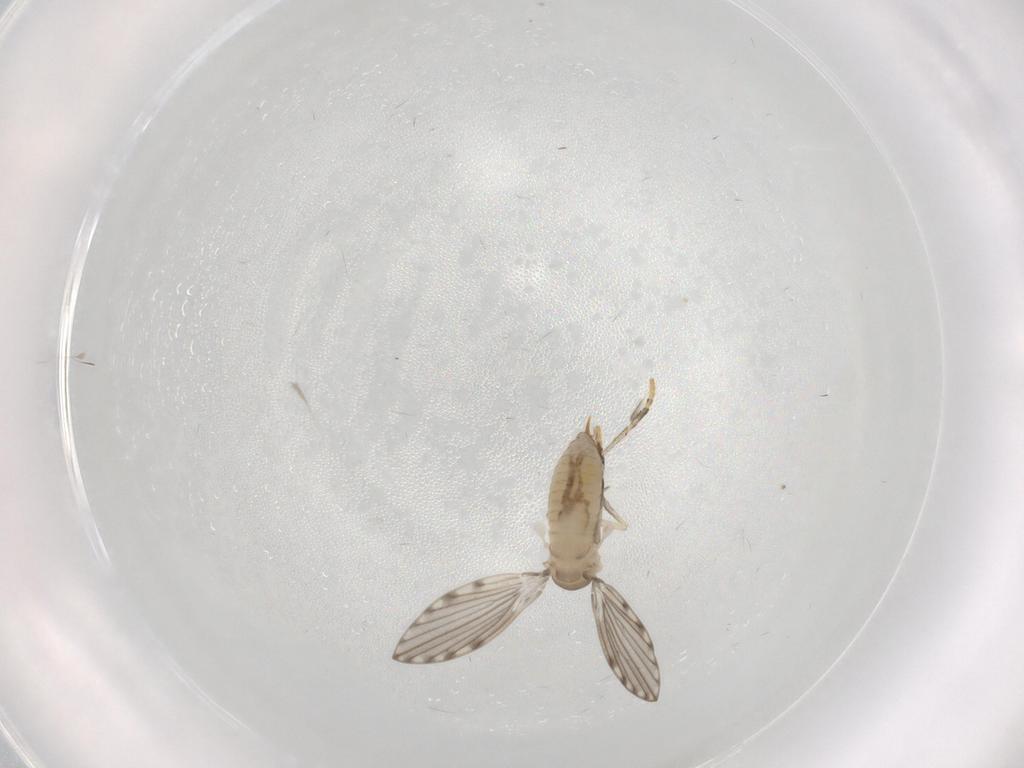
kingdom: Animalia
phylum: Arthropoda
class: Insecta
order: Diptera
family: Psychodidae
